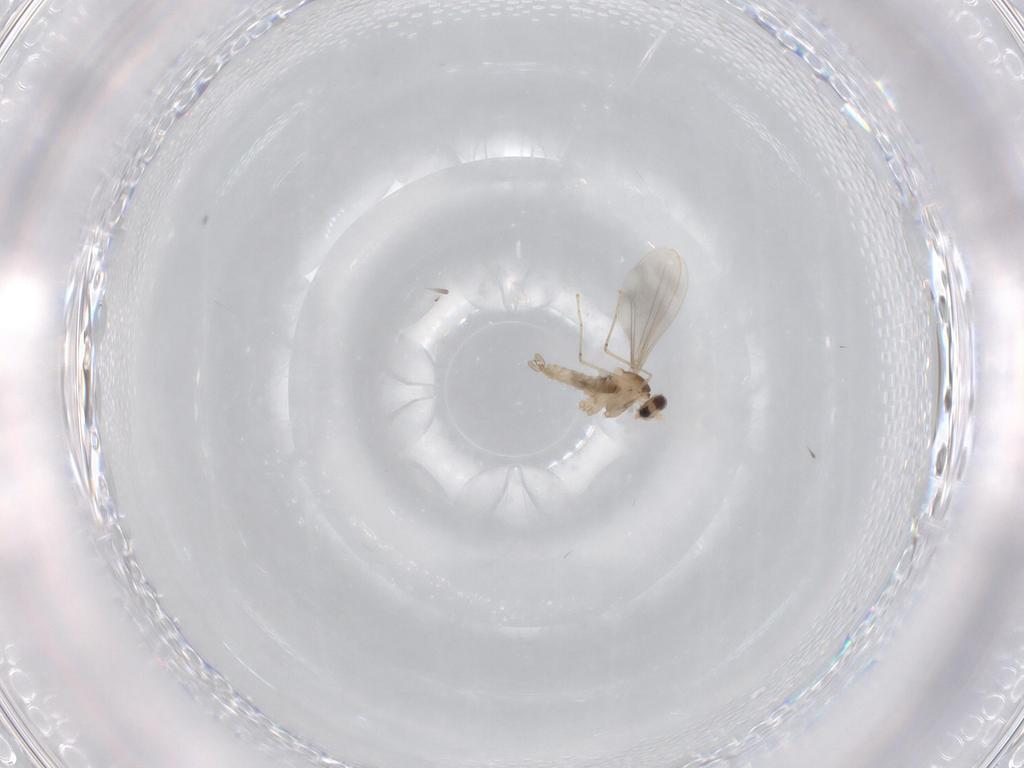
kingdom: Animalia
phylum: Arthropoda
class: Insecta
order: Diptera
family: Cecidomyiidae
